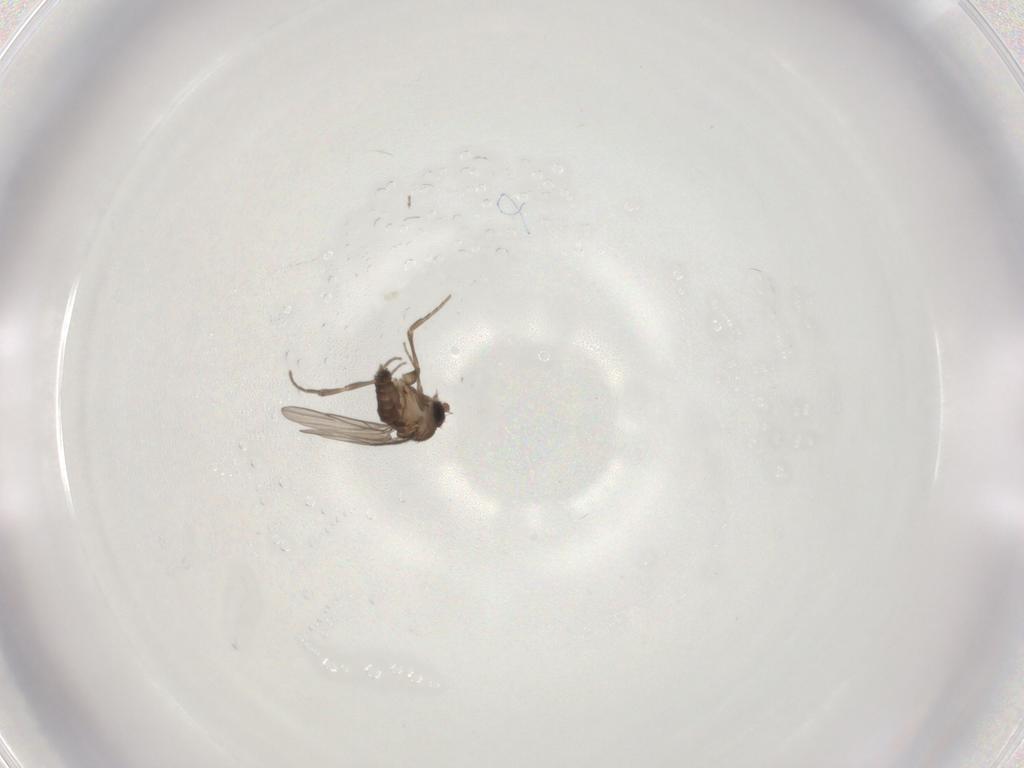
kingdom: Animalia
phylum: Arthropoda
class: Insecta
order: Diptera
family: Phoridae
